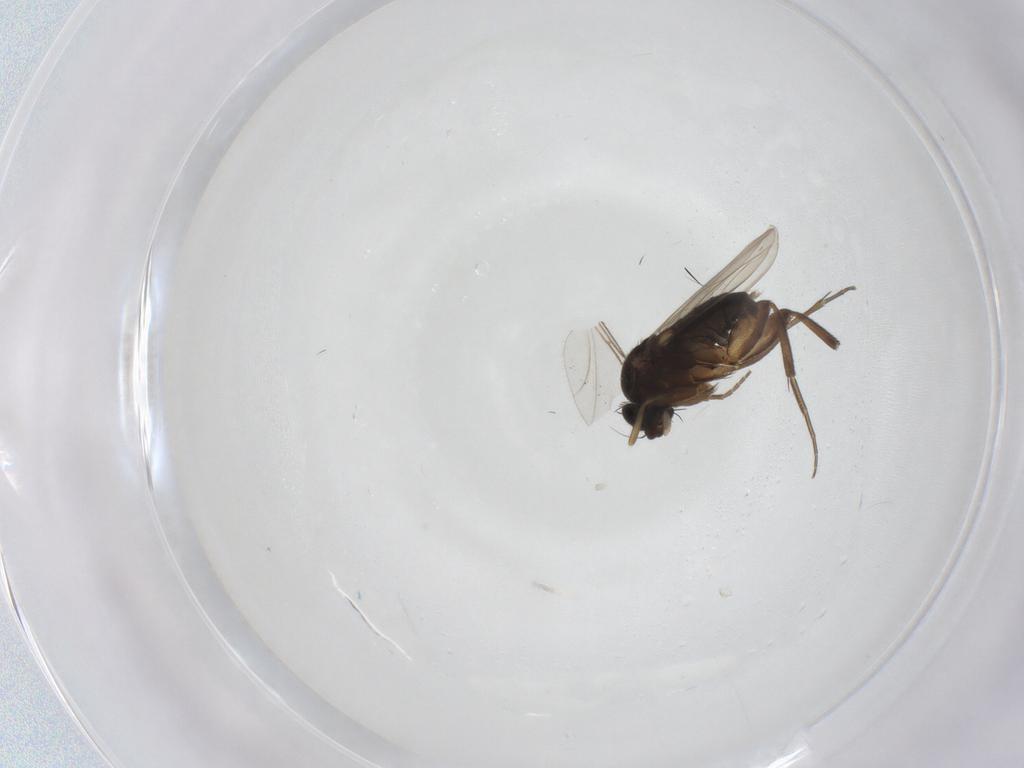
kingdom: Animalia
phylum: Arthropoda
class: Insecta
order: Diptera
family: Phoridae
